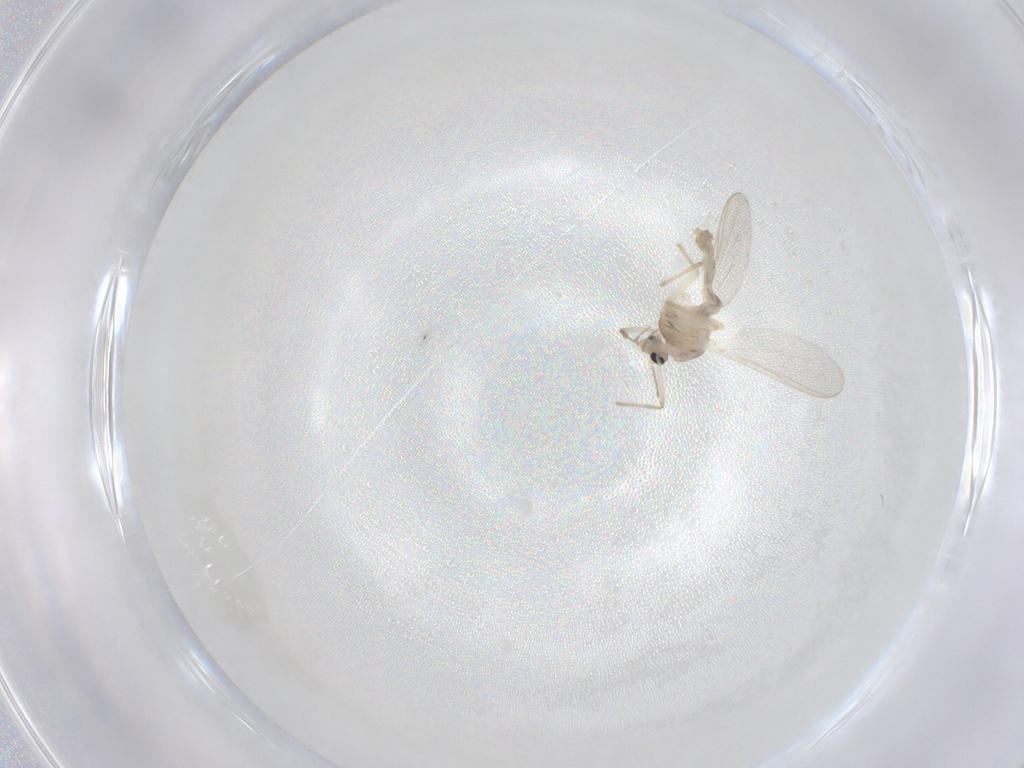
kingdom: Animalia
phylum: Arthropoda
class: Insecta
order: Diptera
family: Chironomidae
